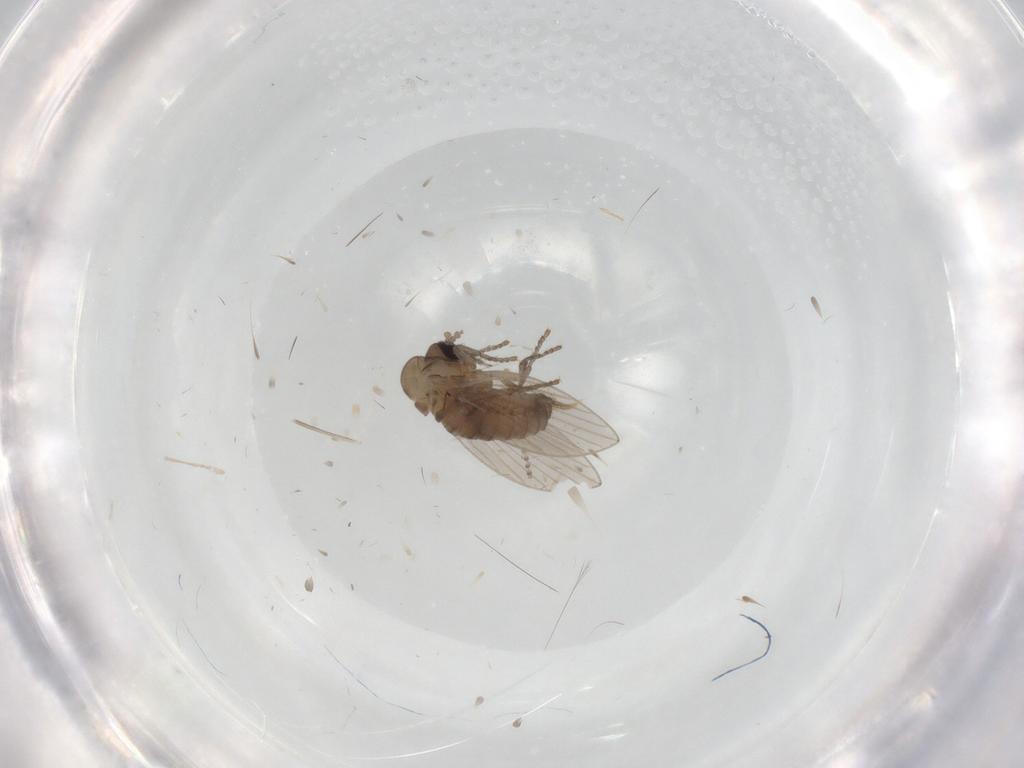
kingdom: Animalia
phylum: Arthropoda
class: Insecta
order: Diptera
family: Psychodidae
